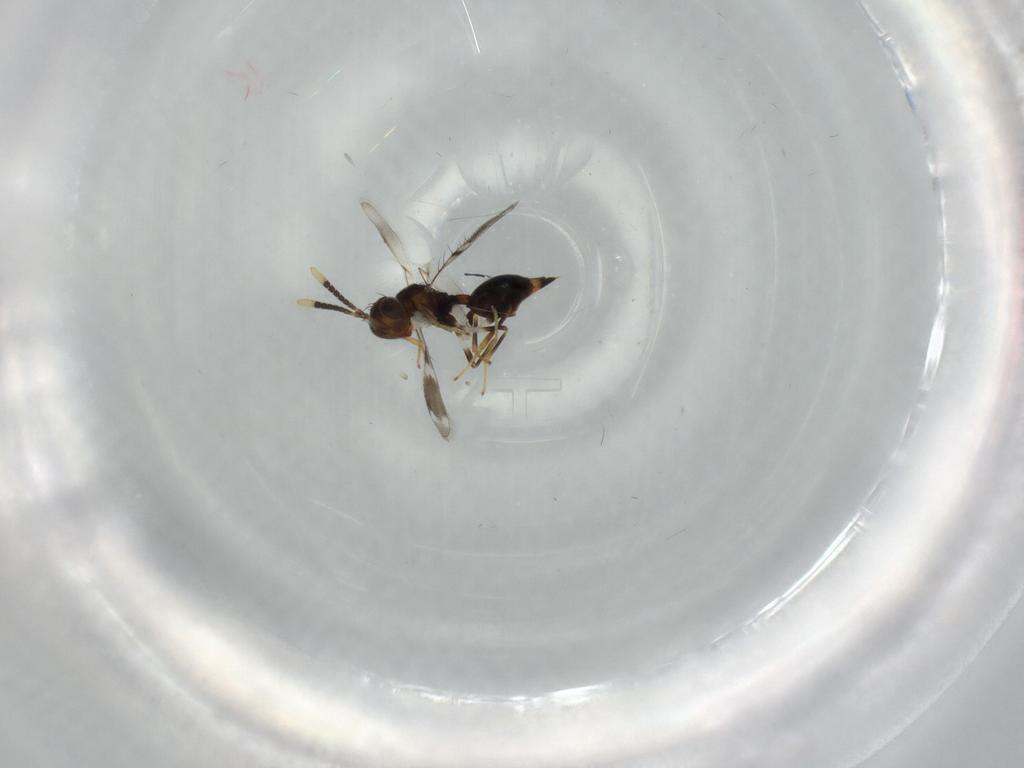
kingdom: Animalia
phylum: Arthropoda
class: Insecta
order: Hymenoptera
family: Diparidae
